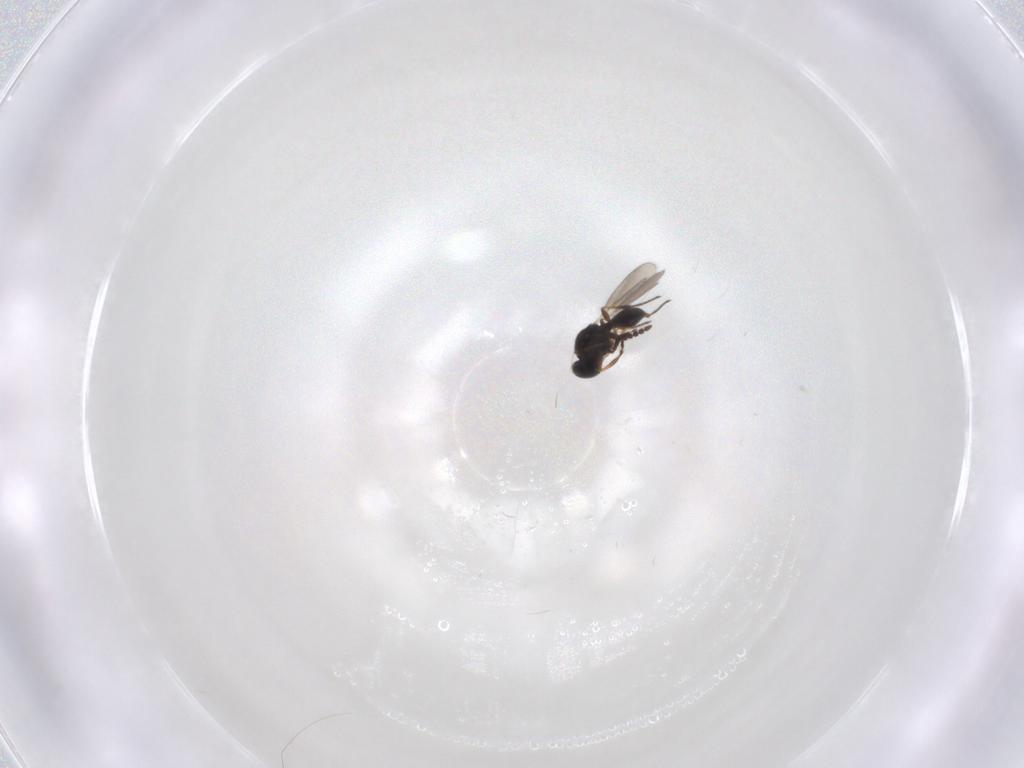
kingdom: Animalia
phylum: Arthropoda
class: Insecta
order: Hymenoptera
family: Platygastridae
